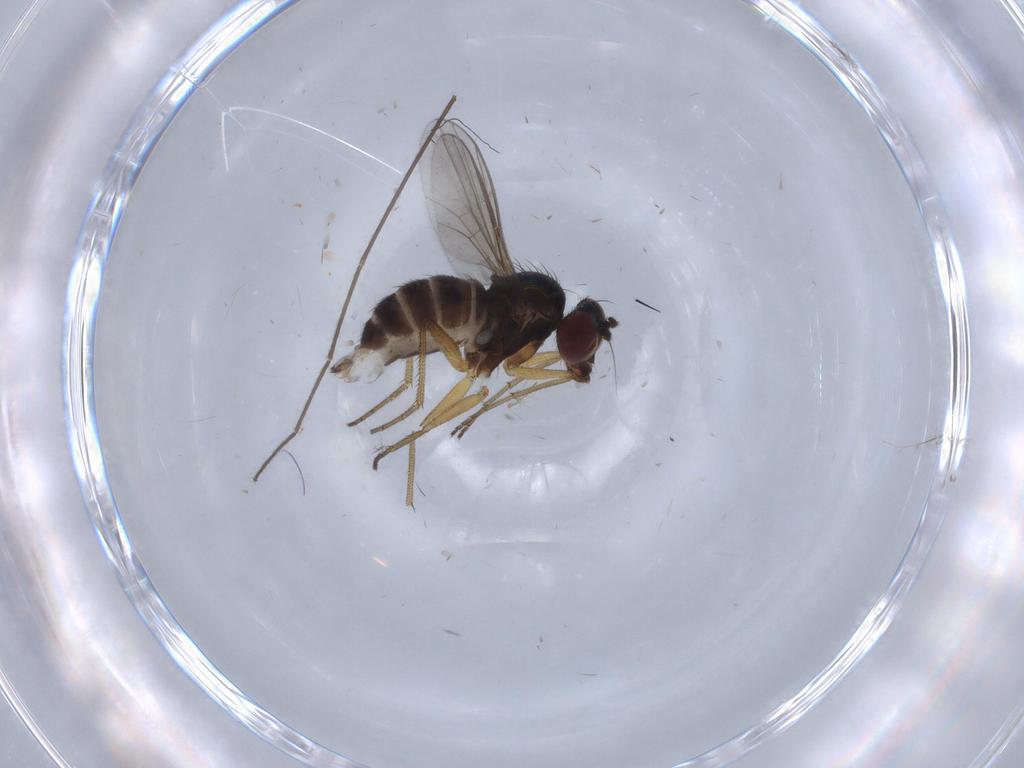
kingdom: Animalia
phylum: Arthropoda
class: Insecta
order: Diptera
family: Dolichopodidae
